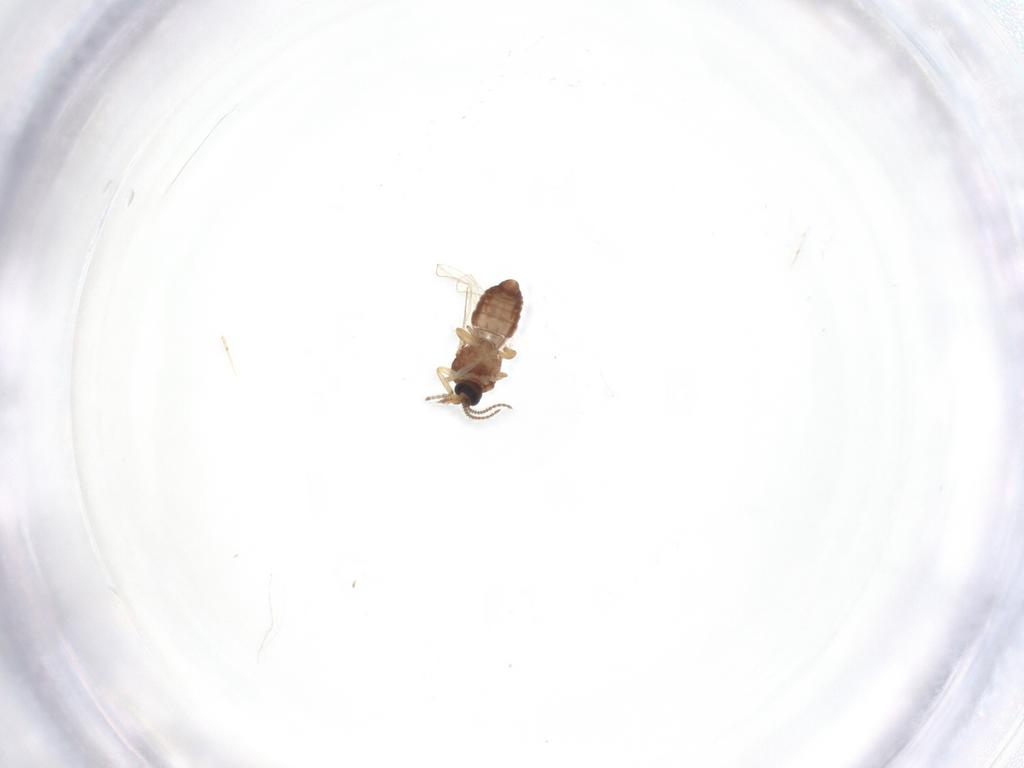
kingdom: Animalia
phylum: Arthropoda
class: Insecta
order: Diptera
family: Ceratopogonidae
